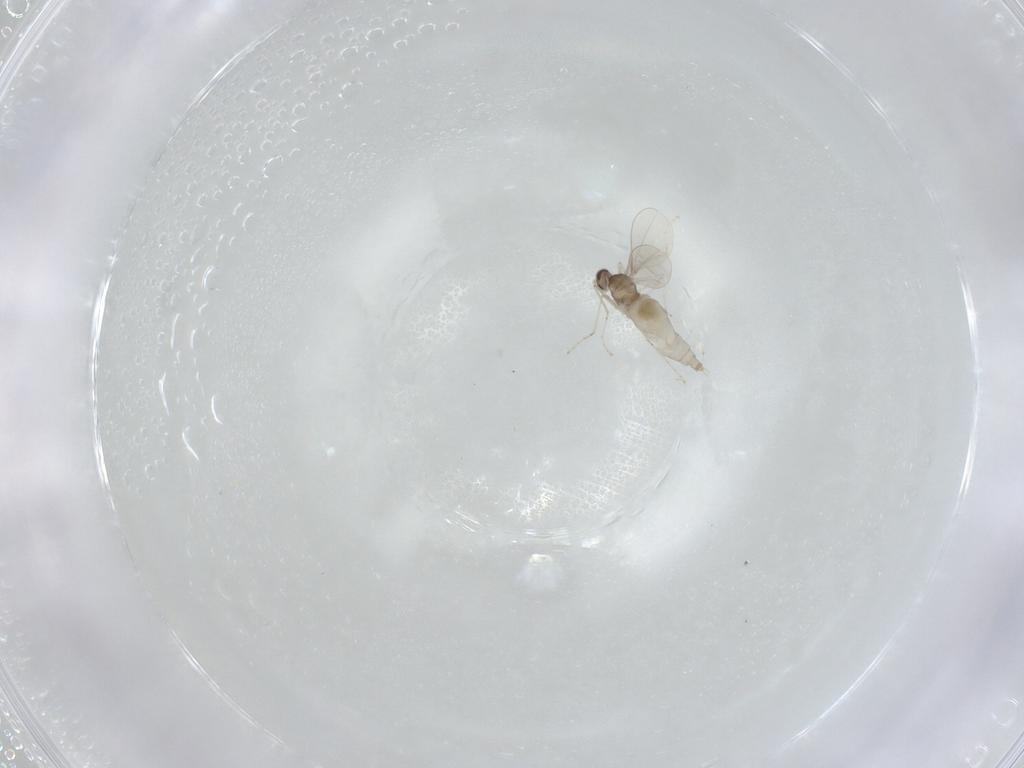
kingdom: Animalia
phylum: Arthropoda
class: Insecta
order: Diptera
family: Cecidomyiidae
